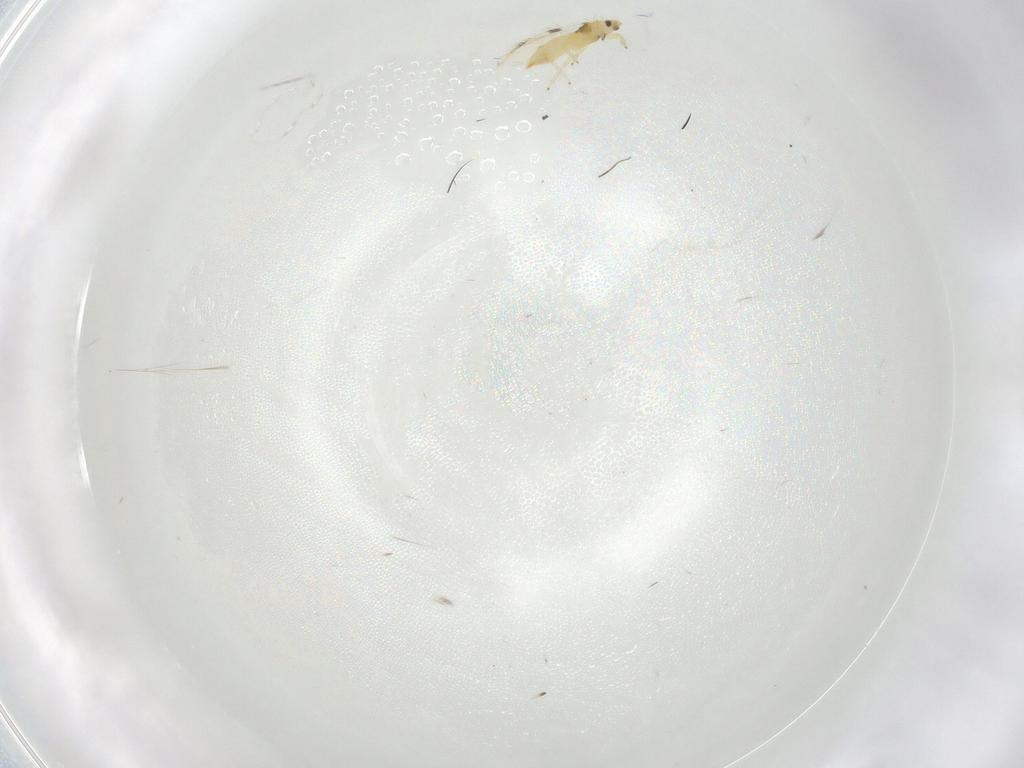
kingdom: Animalia
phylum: Arthropoda
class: Insecta
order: Thysanoptera
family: Thripidae
